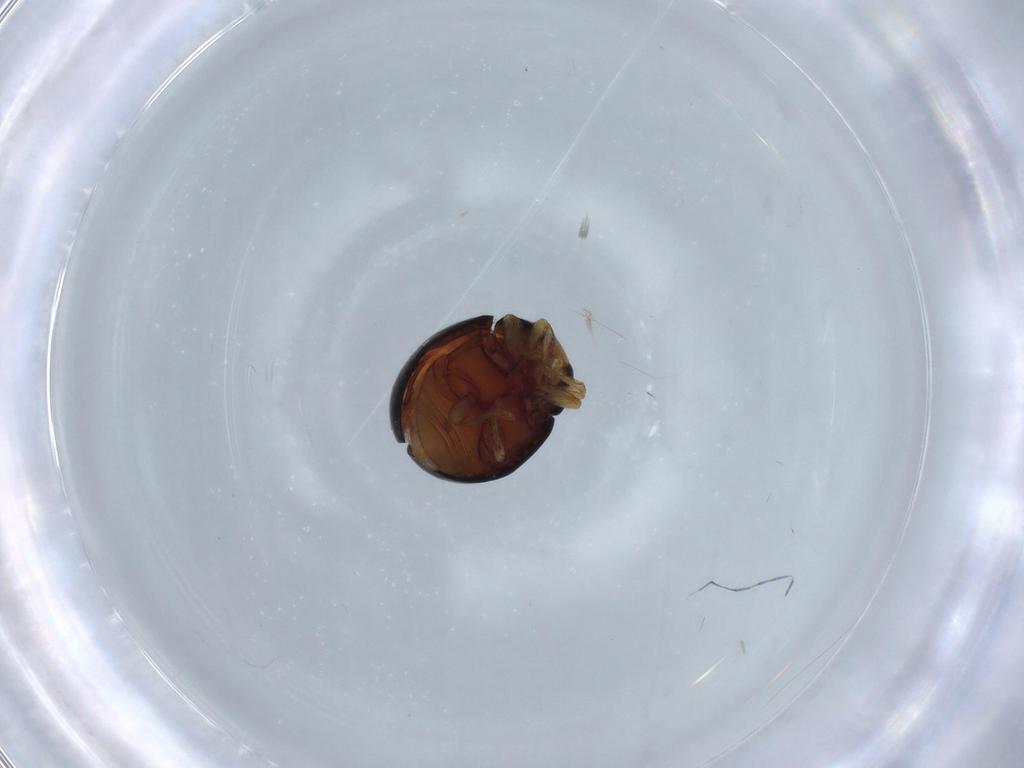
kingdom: Animalia
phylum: Arthropoda
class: Insecta
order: Coleoptera
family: Coccinellidae
